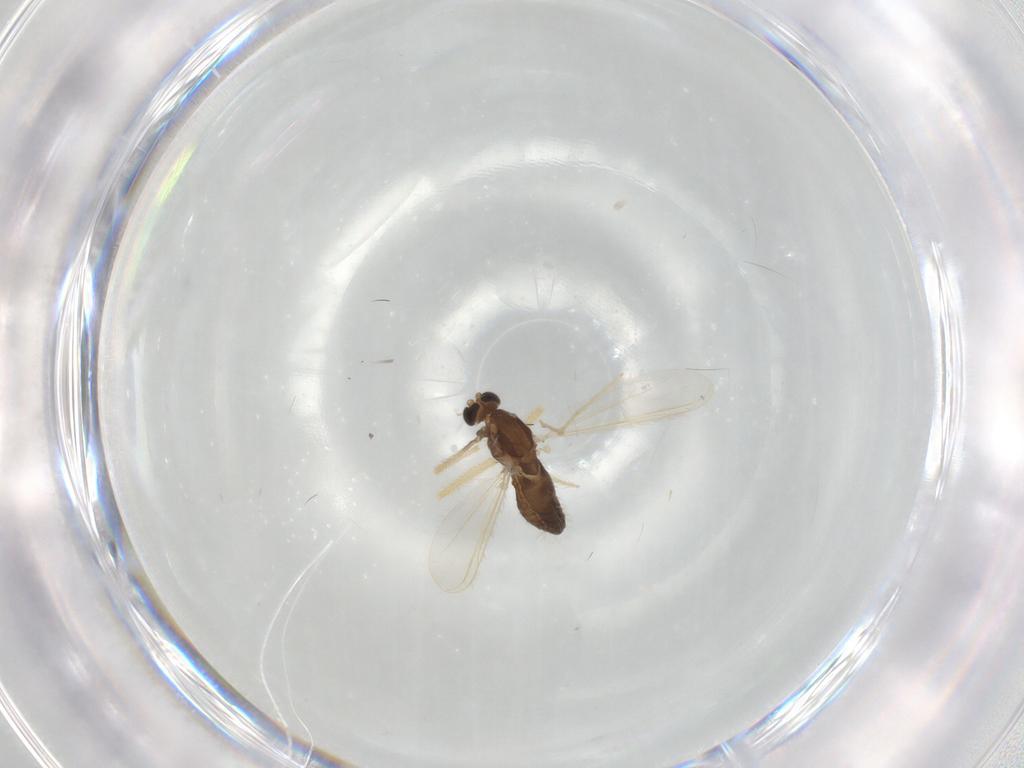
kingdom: Animalia
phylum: Arthropoda
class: Insecta
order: Diptera
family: Chironomidae
